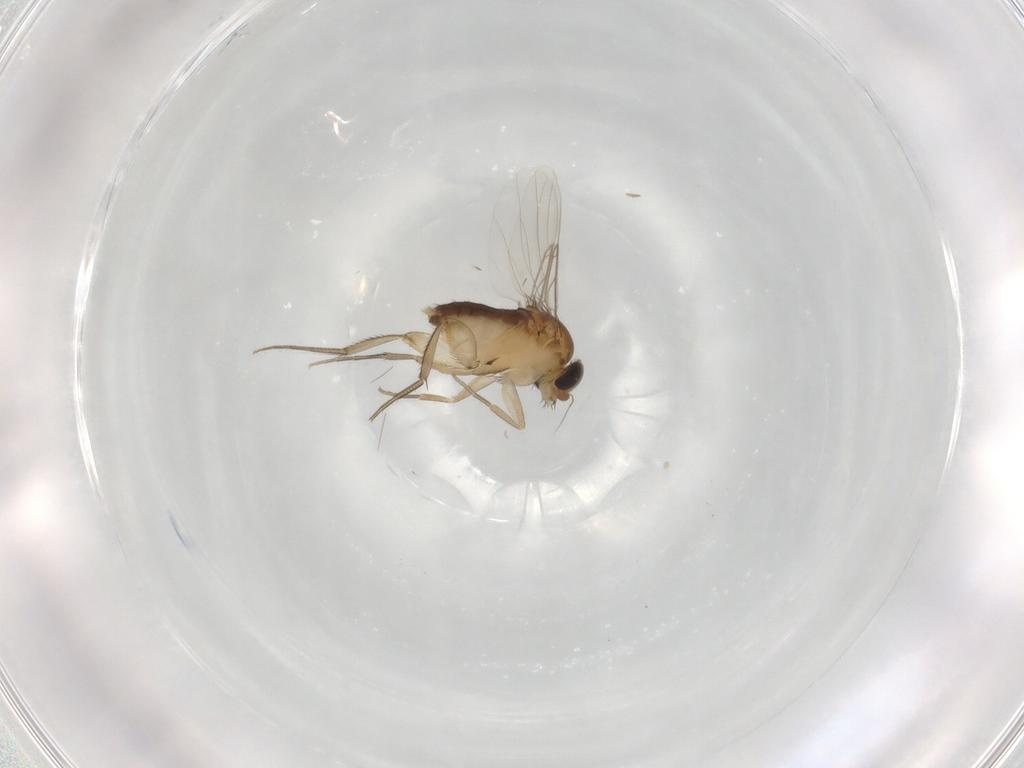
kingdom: Animalia
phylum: Arthropoda
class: Insecta
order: Diptera
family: Phoridae
